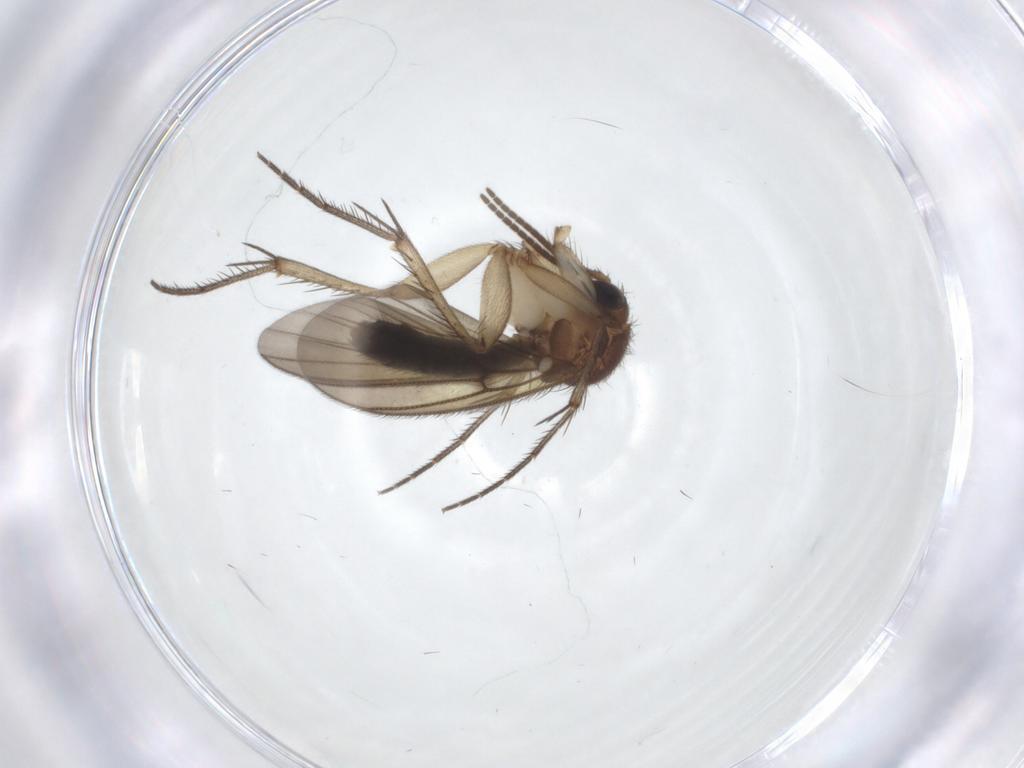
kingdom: Animalia
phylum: Arthropoda
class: Insecta
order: Diptera
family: Mycetophilidae
